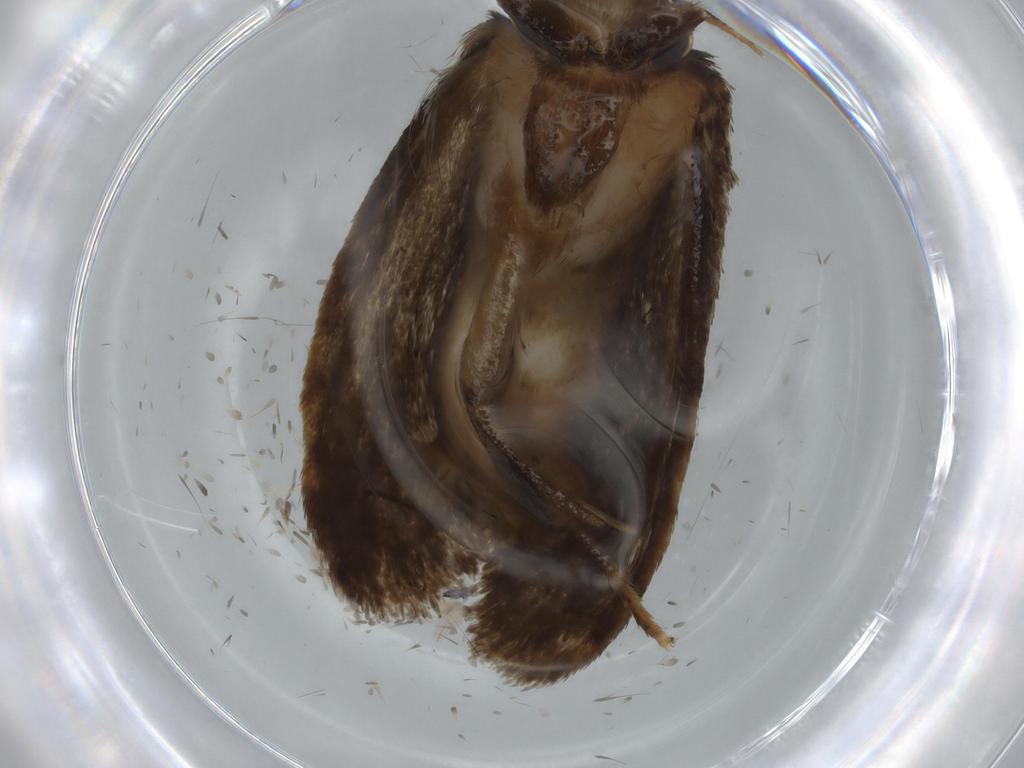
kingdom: Animalia
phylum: Arthropoda
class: Insecta
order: Lepidoptera
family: Tineidae
